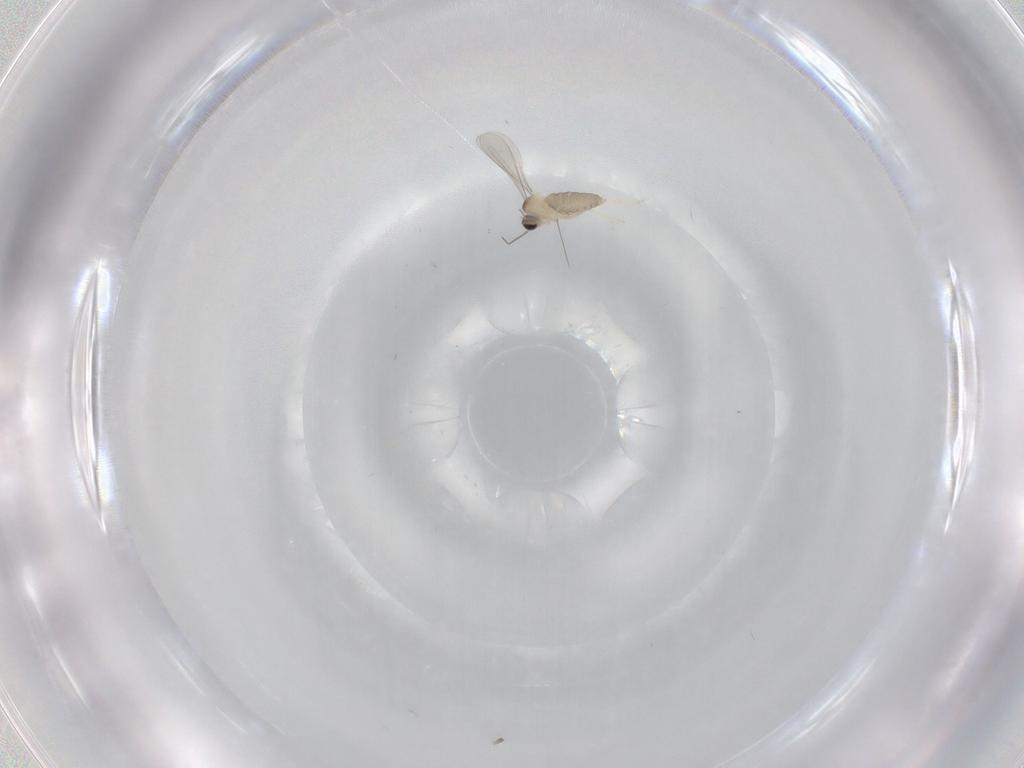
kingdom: Animalia
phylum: Arthropoda
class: Insecta
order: Diptera
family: Cecidomyiidae
